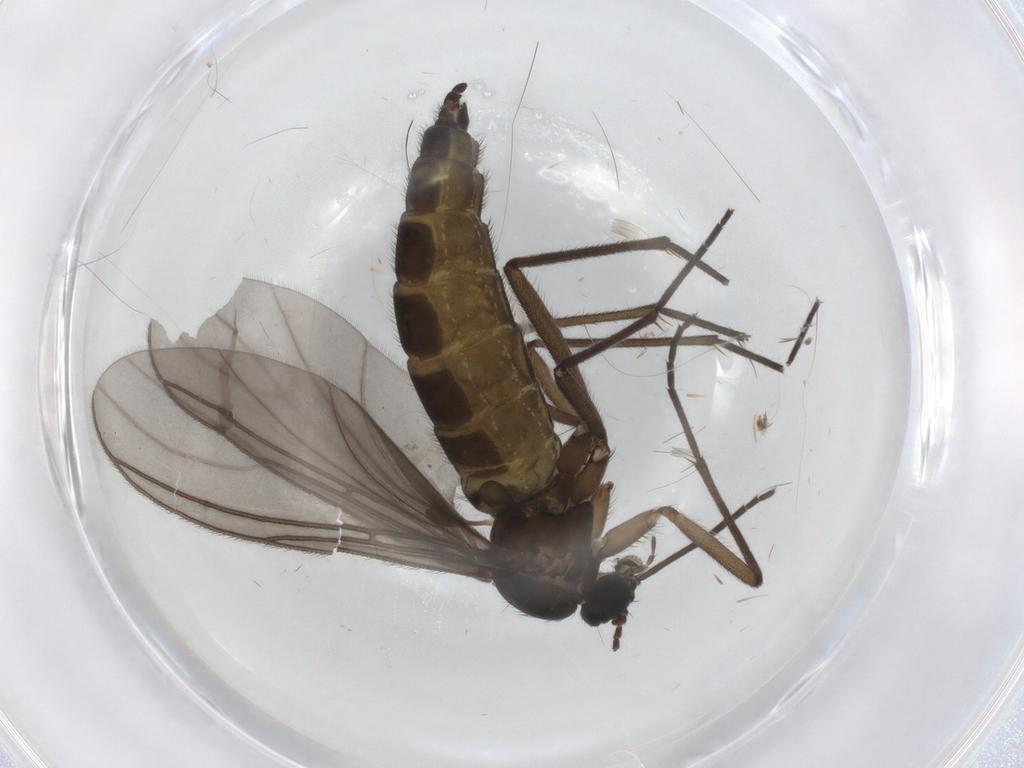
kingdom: Animalia
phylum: Arthropoda
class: Insecta
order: Diptera
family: Sciaridae
